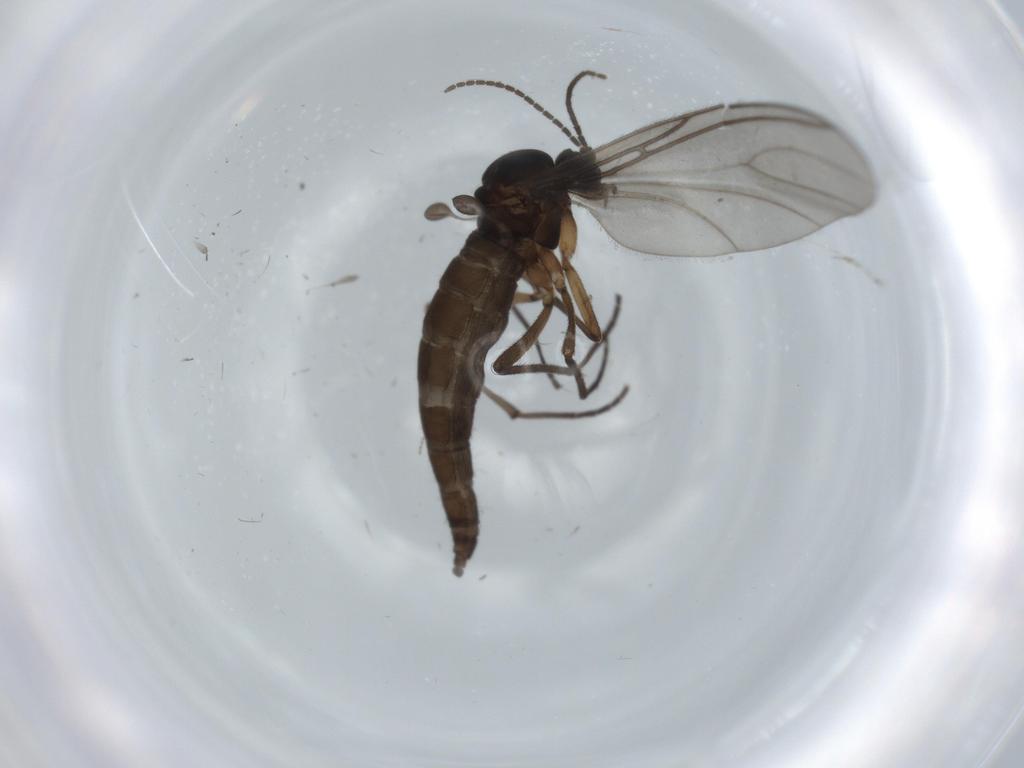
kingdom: Animalia
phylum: Arthropoda
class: Insecta
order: Diptera
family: Sciaridae
